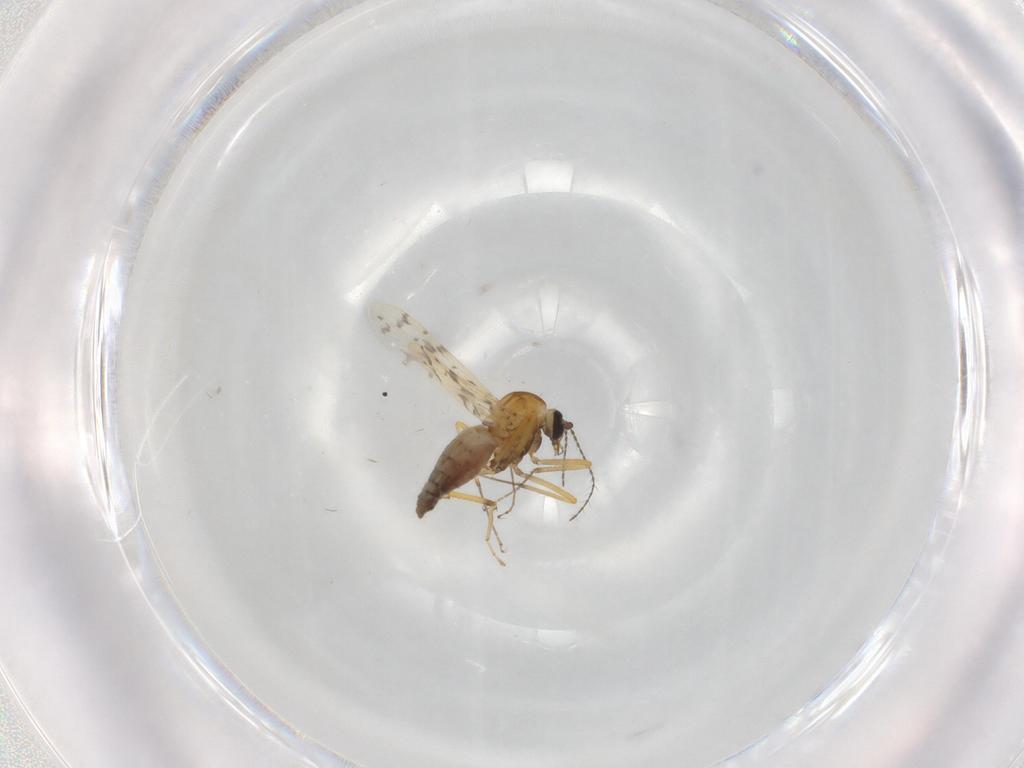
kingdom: Animalia
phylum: Arthropoda
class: Insecta
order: Diptera
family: Ceratopogonidae
